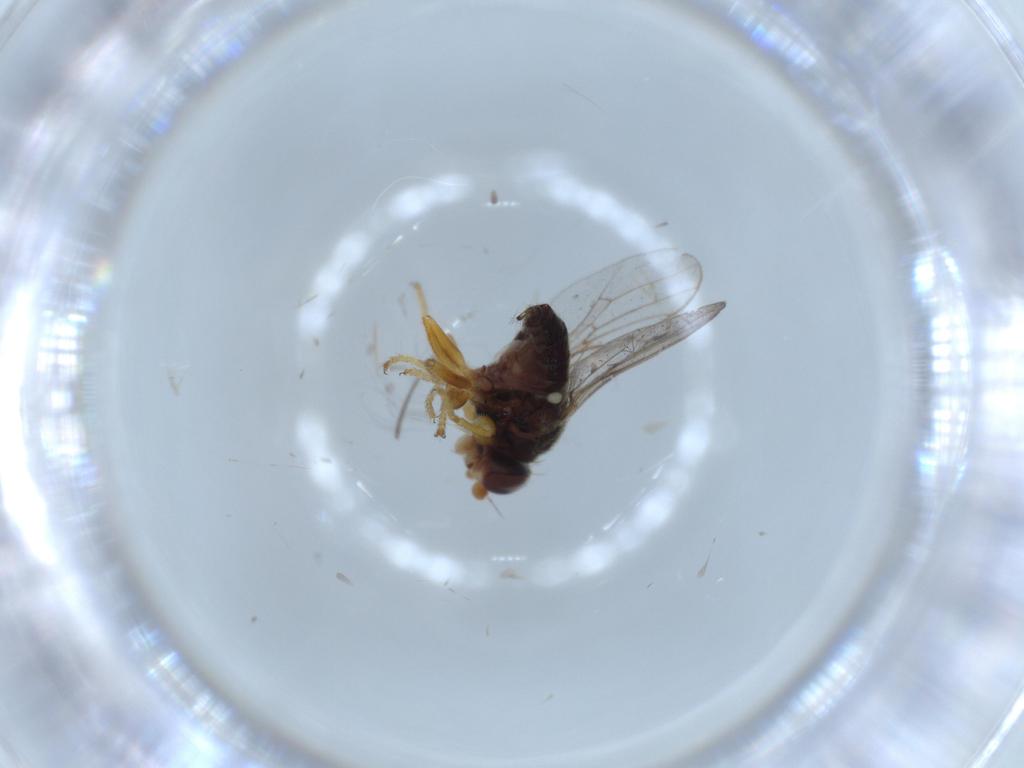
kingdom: Animalia
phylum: Arthropoda
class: Insecta
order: Diptera
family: Chloropidae
